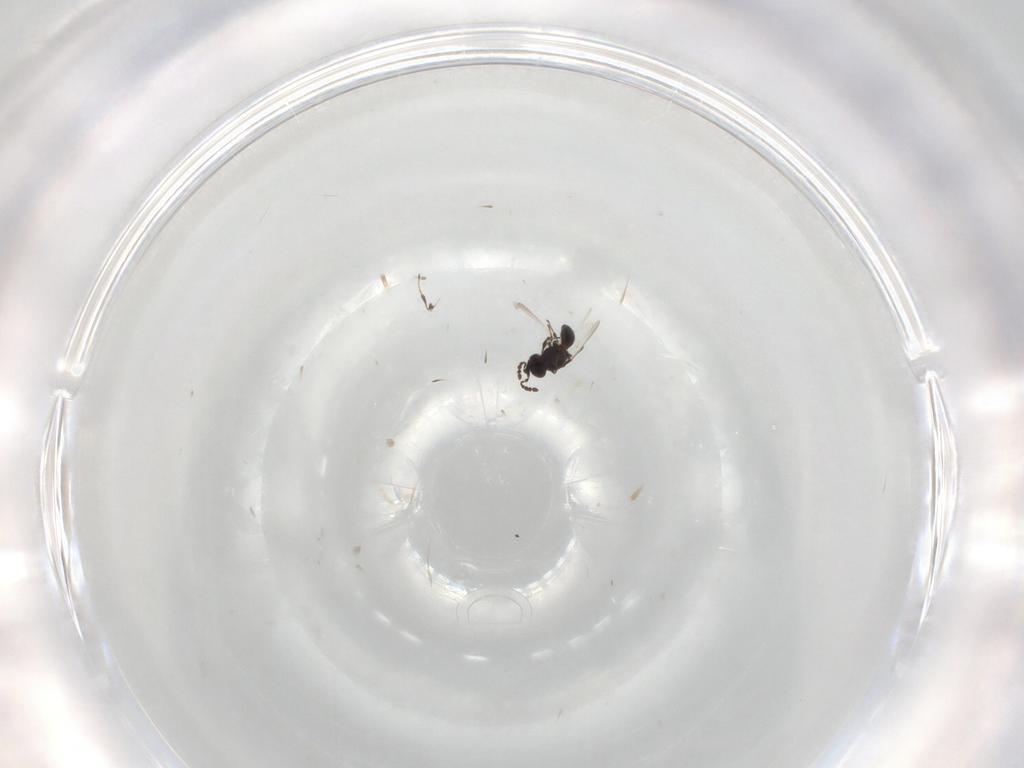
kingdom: Animalia
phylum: Arthropoda
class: Insecta
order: Hymenoptera
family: Platygastridae
